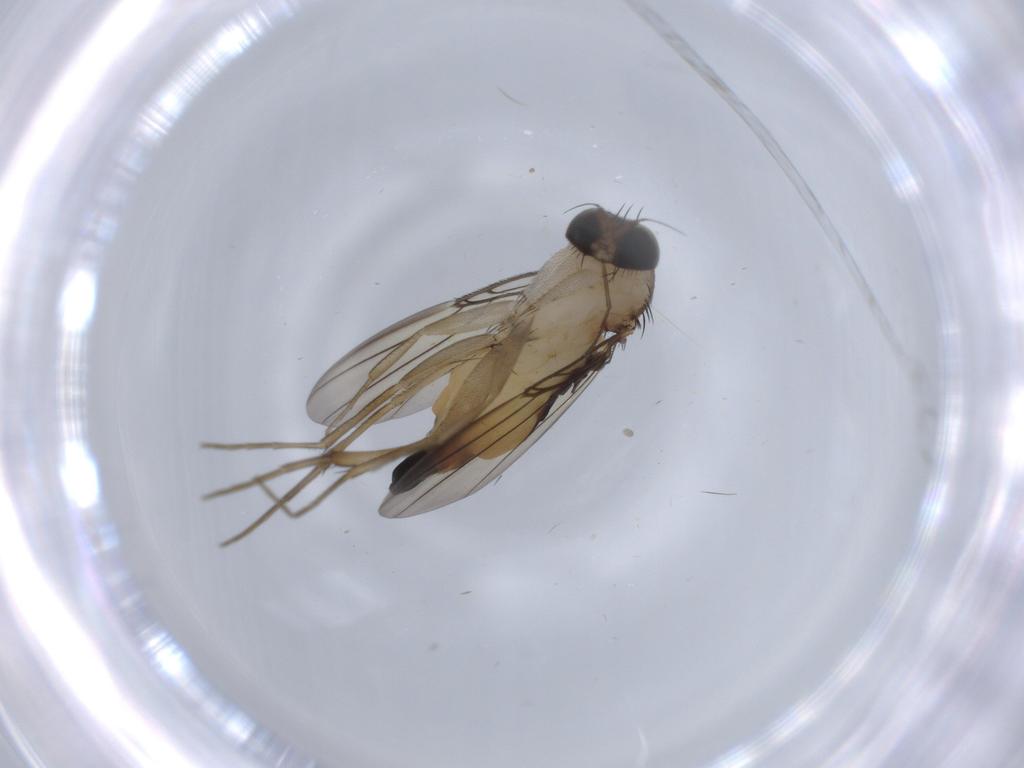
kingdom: Animalia
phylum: Arthropoda
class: Insecta
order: Diptera
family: Phoridae
